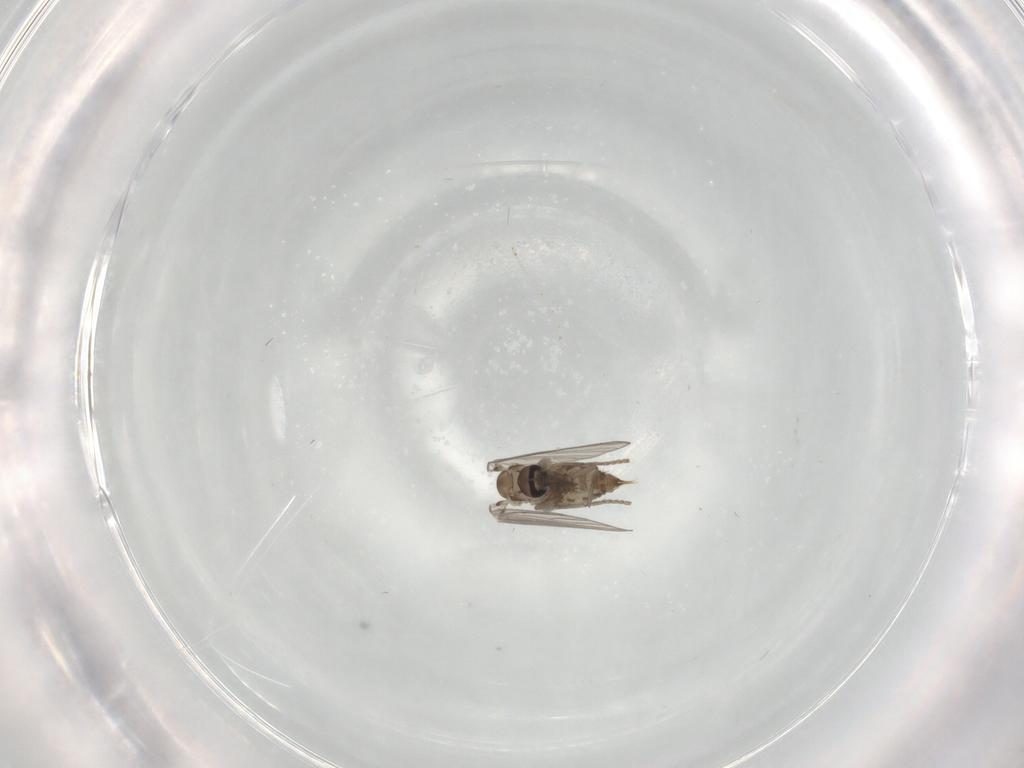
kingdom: Animalia
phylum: Arthropoda
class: Insecta
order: Diptera
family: Psychodidae
